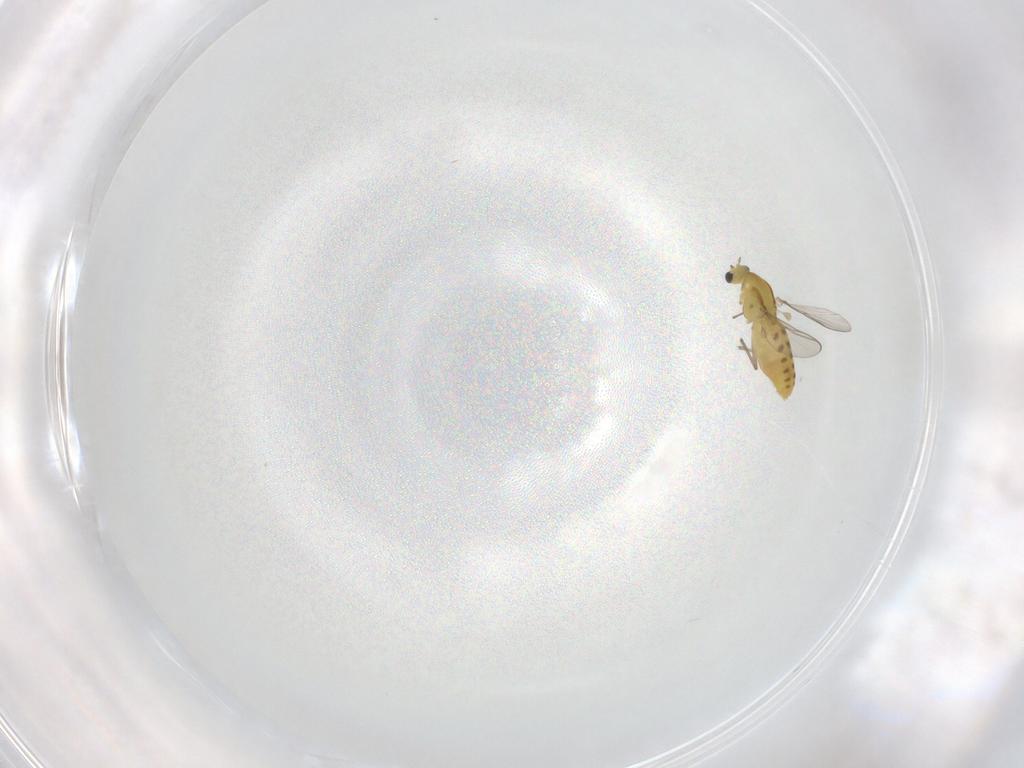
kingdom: Animalia
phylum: Arthropoda
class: Insecta
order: Diptera
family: Chironomidae
